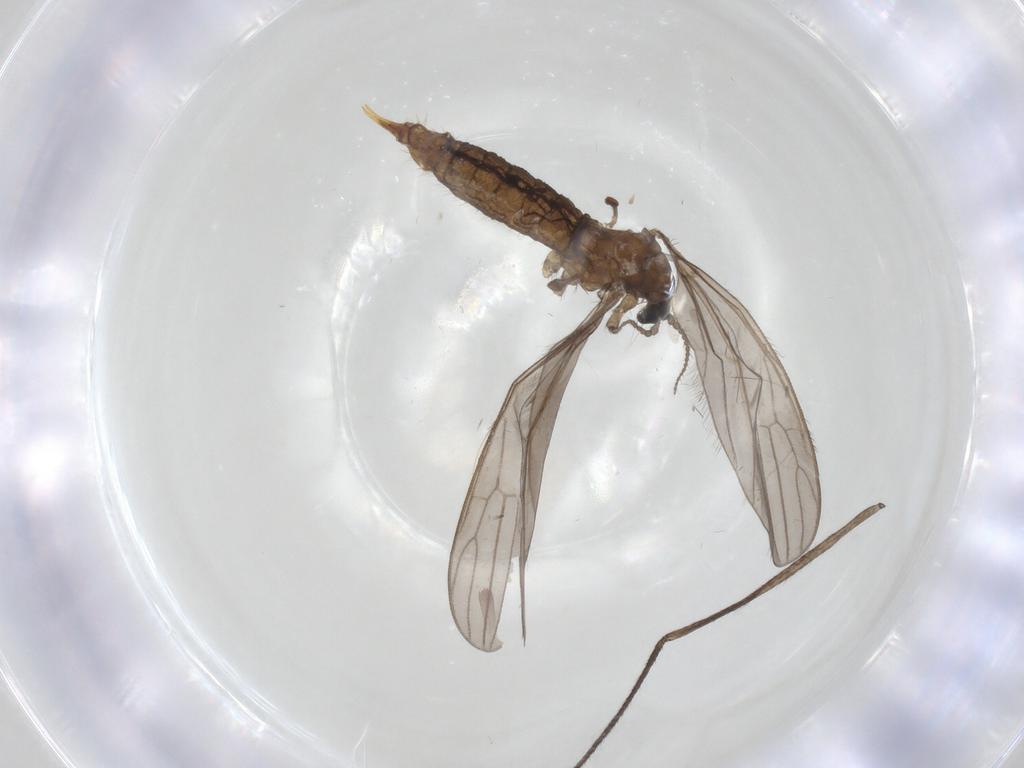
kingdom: Animalia
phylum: Arthropoda
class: Insecta
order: Diptera
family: Limoniidae
